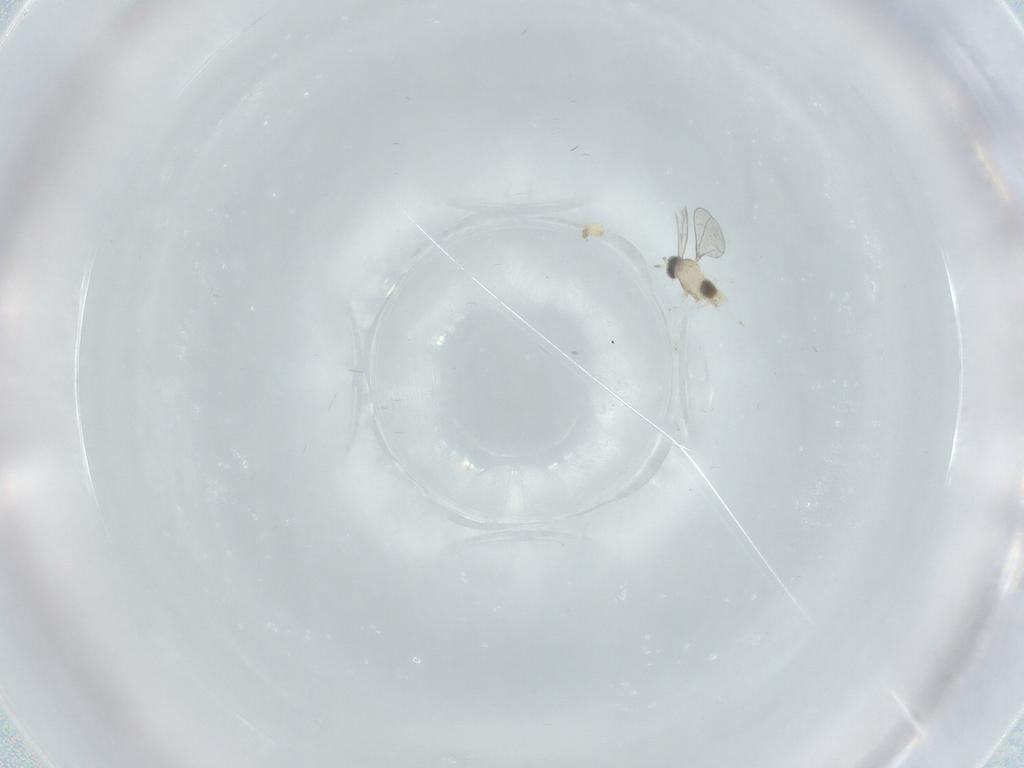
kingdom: Animalia
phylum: Arthropoda
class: Insecta
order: Diptera
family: Cecidomyiidae
